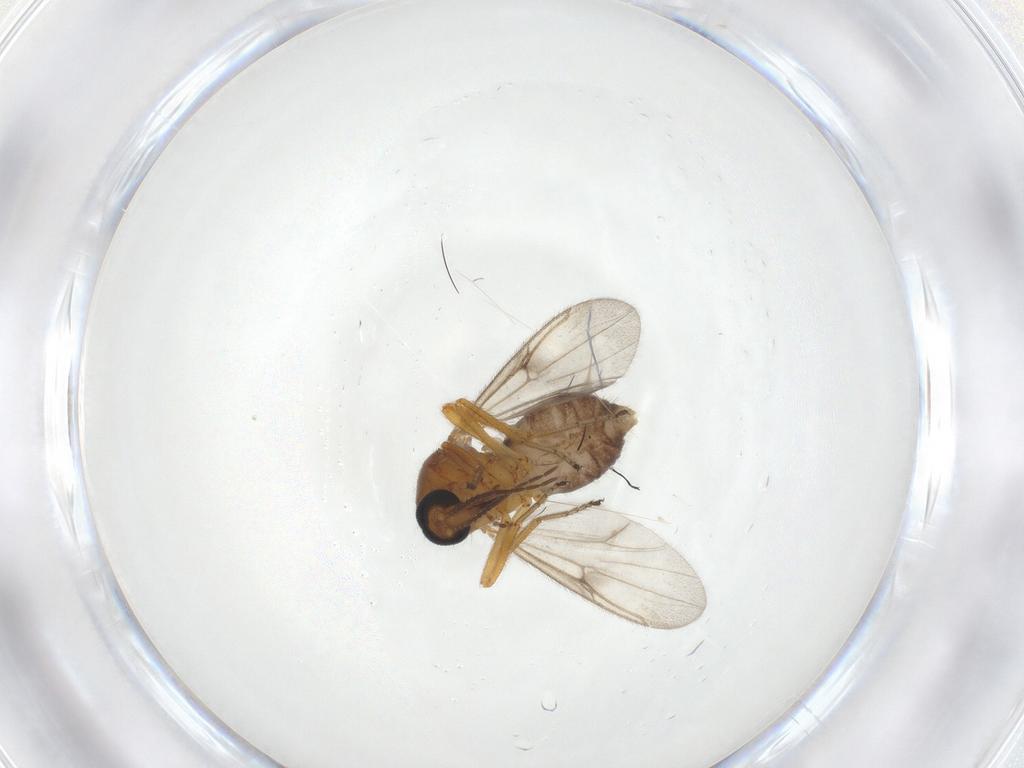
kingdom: Animalia
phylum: Arthropoda
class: Insecta
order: Diptera
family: Ceratopogonidae
